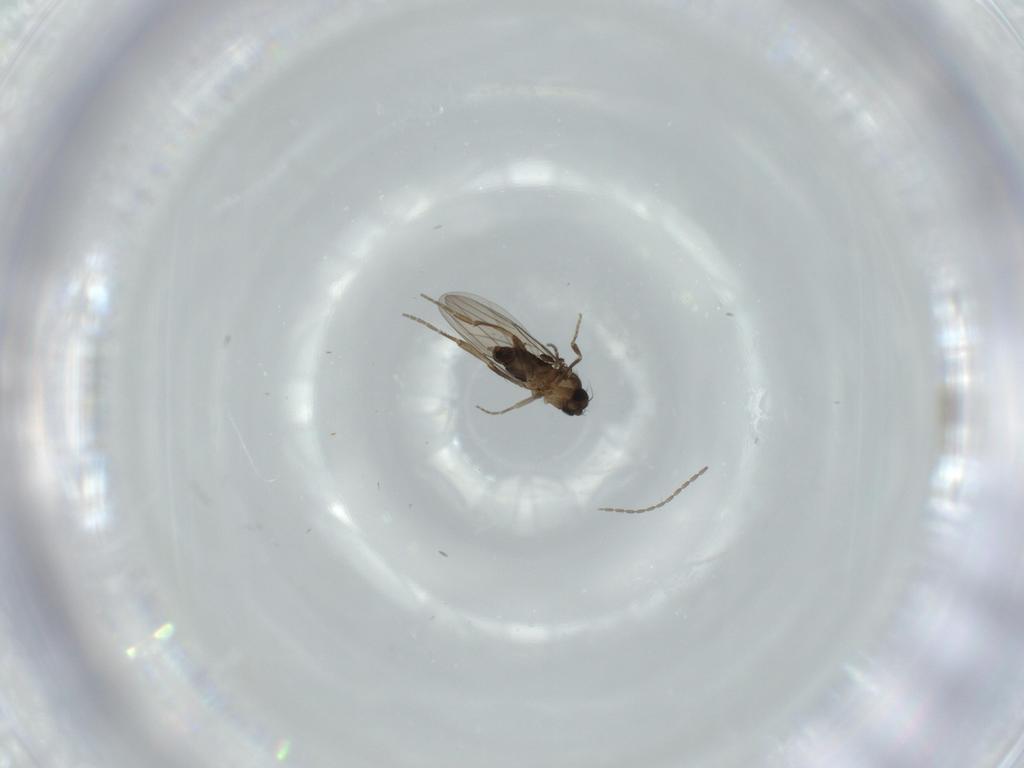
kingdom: Animalia
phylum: Arthropoda
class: Insecta
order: Diptera
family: Phoridae
